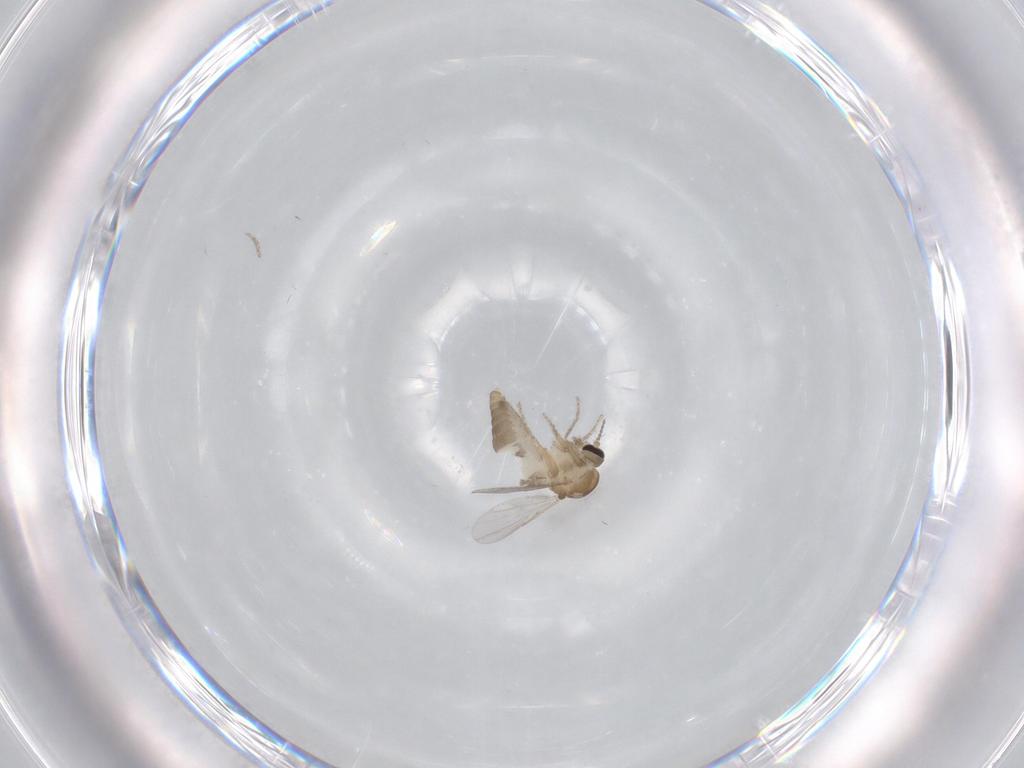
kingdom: Animalia
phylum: Arthropoda
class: Insecta
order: Diptera
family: Ceratopogonidae
